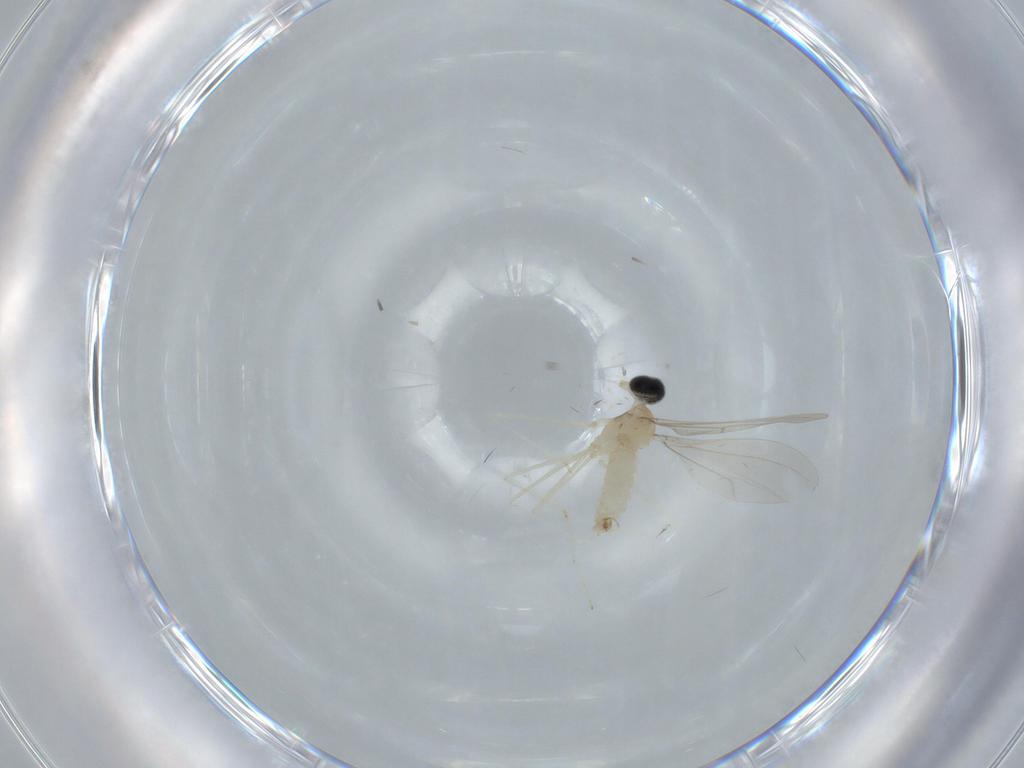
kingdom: Animalia
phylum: Arthropoda
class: Insecta
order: Diptera
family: Cecidomyiidae
